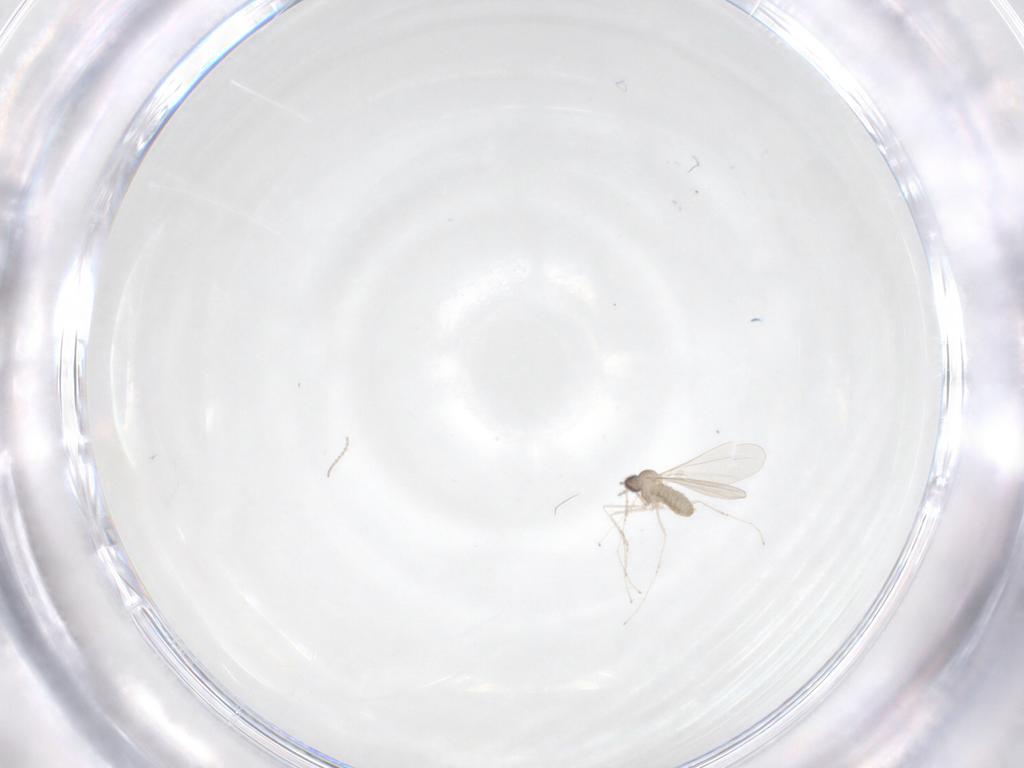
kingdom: Animalia
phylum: Arthropoda
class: Insecta
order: Diptera
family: Cecidomyiidae
